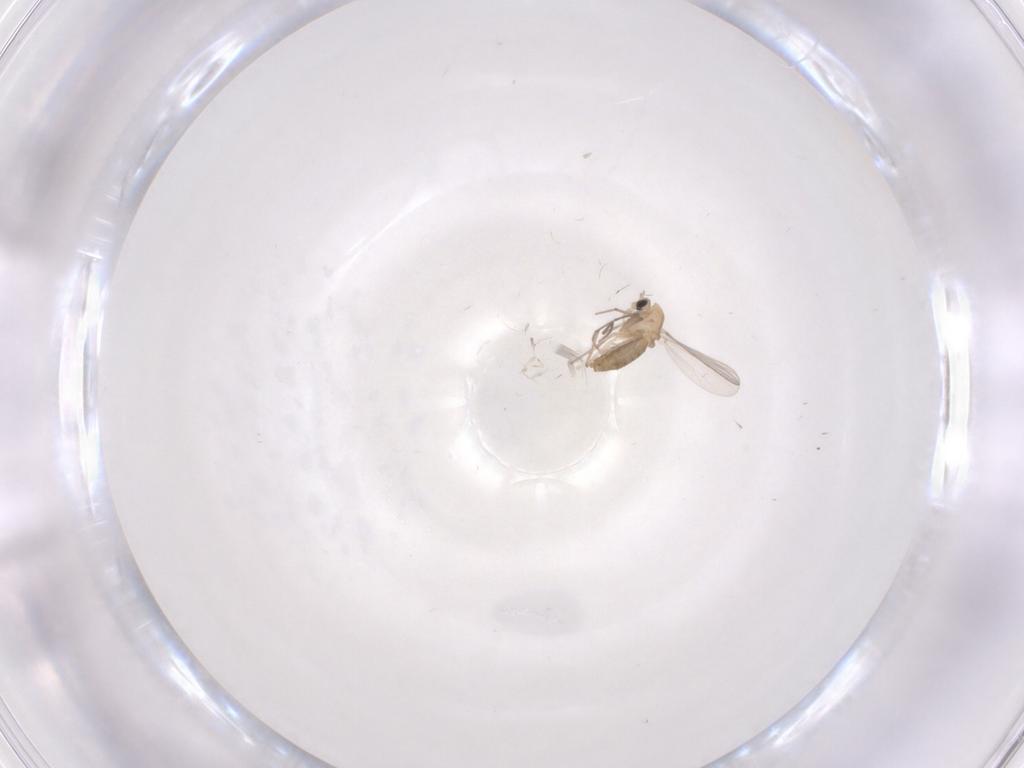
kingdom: Animalia
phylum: Arthropoda
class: Insecta
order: Diptera
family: Chironomidae
